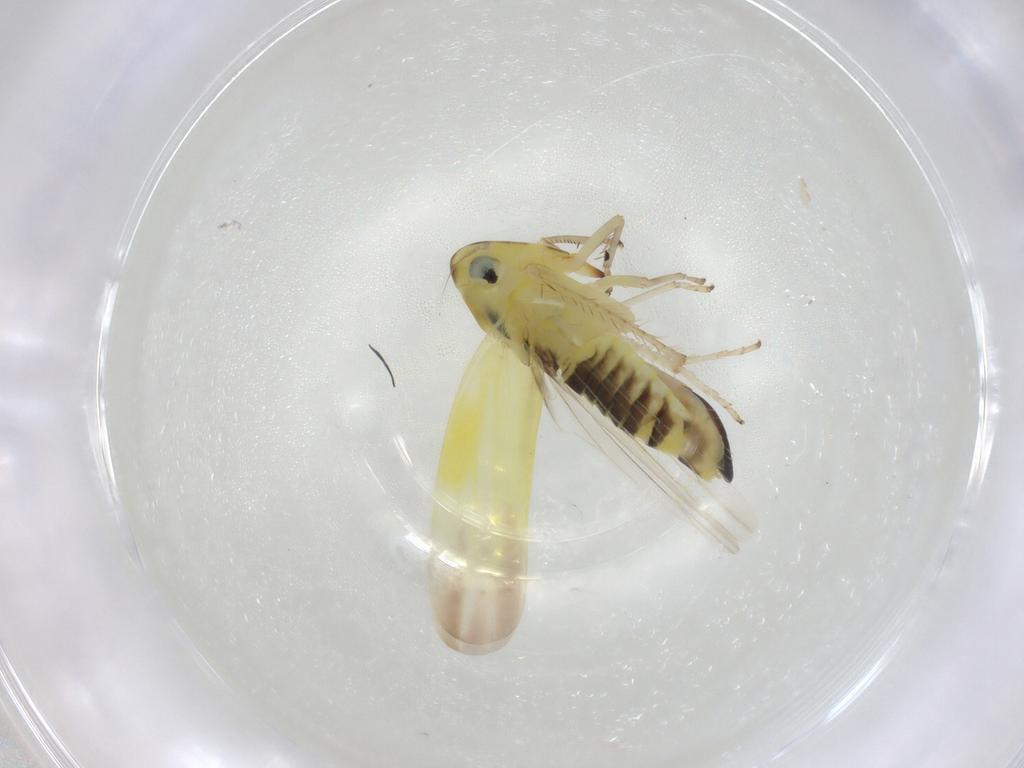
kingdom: Animalia
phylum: Arthropoda
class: Insecta
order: Hemiptera
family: Cicadellidae
